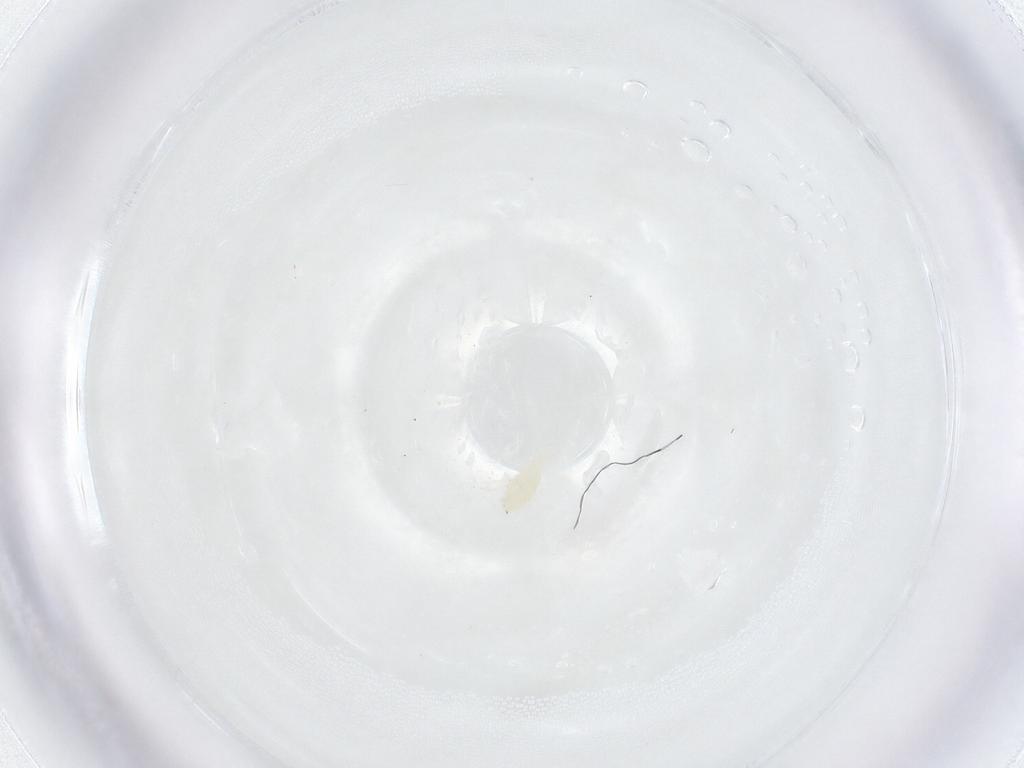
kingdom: Animalia
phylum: Arthropoda
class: Arachnida
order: Trombidiformes
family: Stigmaeidae
